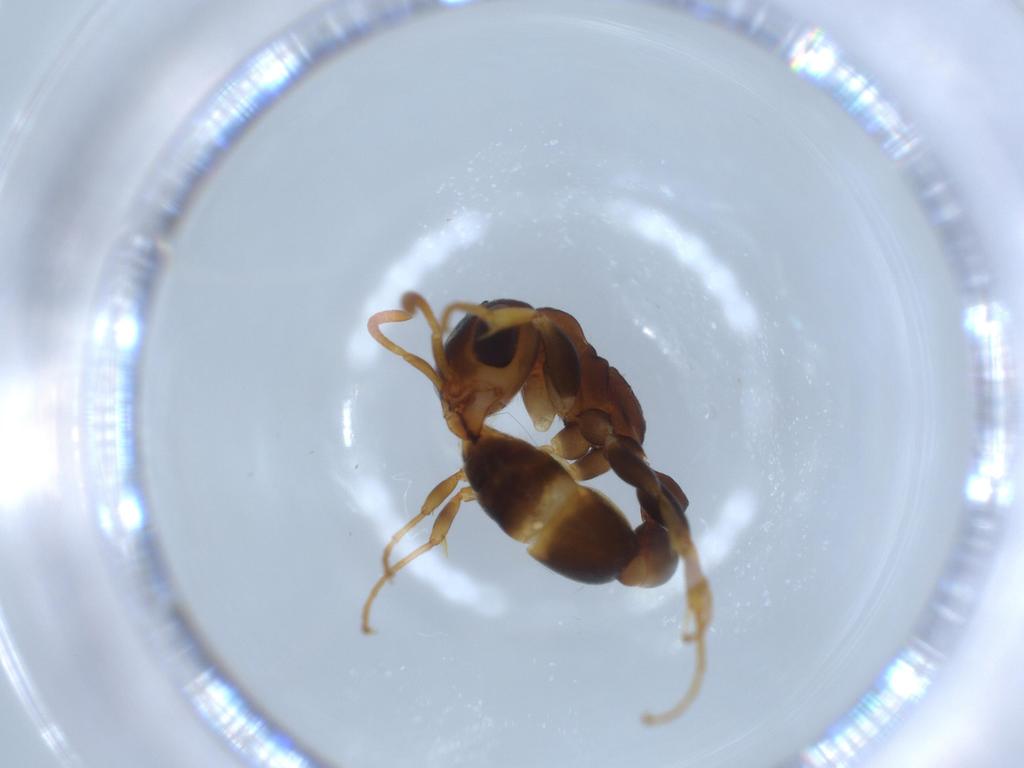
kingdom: Animalia
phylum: Arthropoda
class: Insecta
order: Hymenoptera
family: Formicidae
